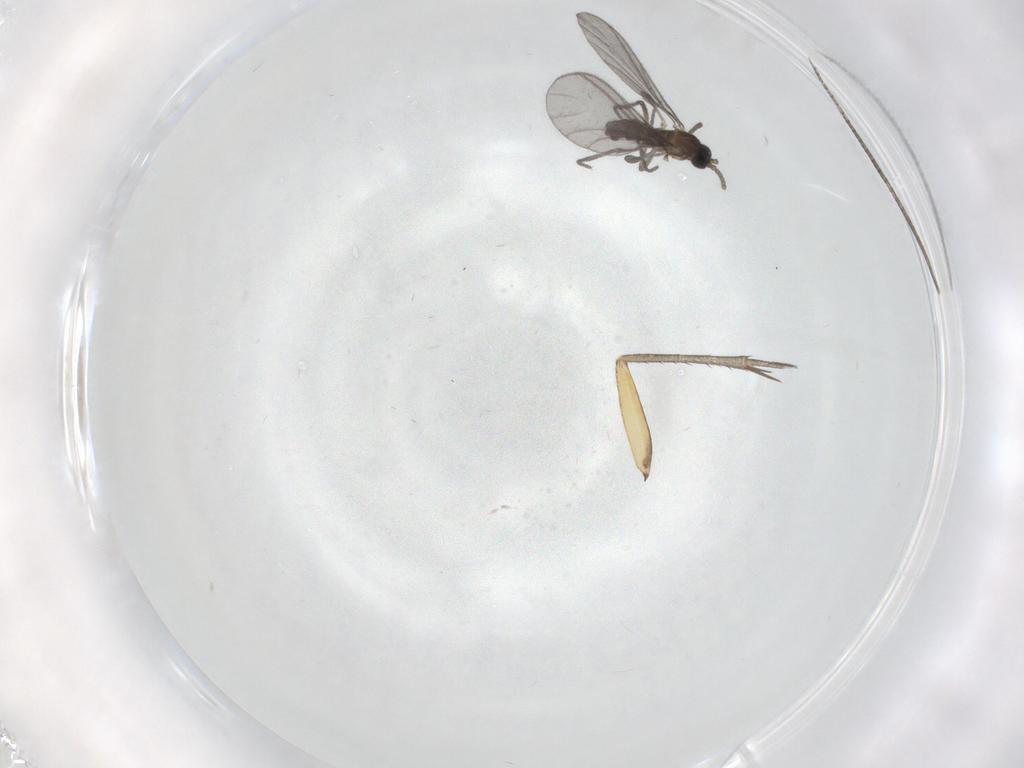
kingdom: Animalia
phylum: Arthropoda
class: Insecta
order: Diptera
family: Sciaridae
